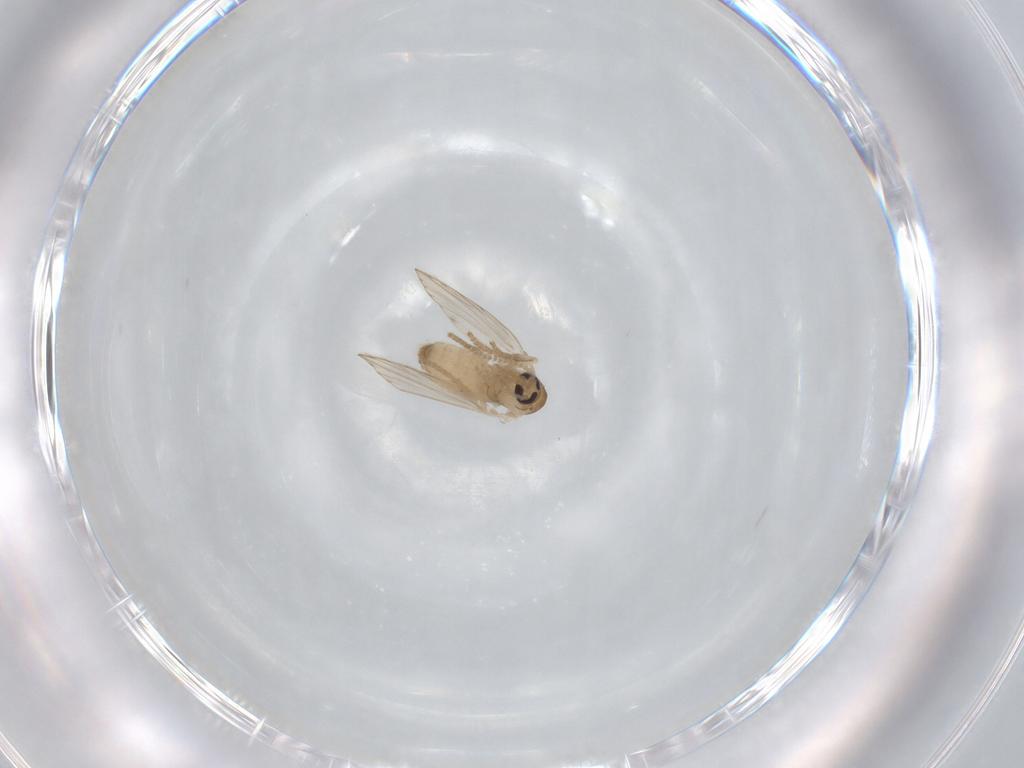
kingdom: Animalia
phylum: Arthropoda
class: Insecta
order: Diptera
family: Psychodidae
